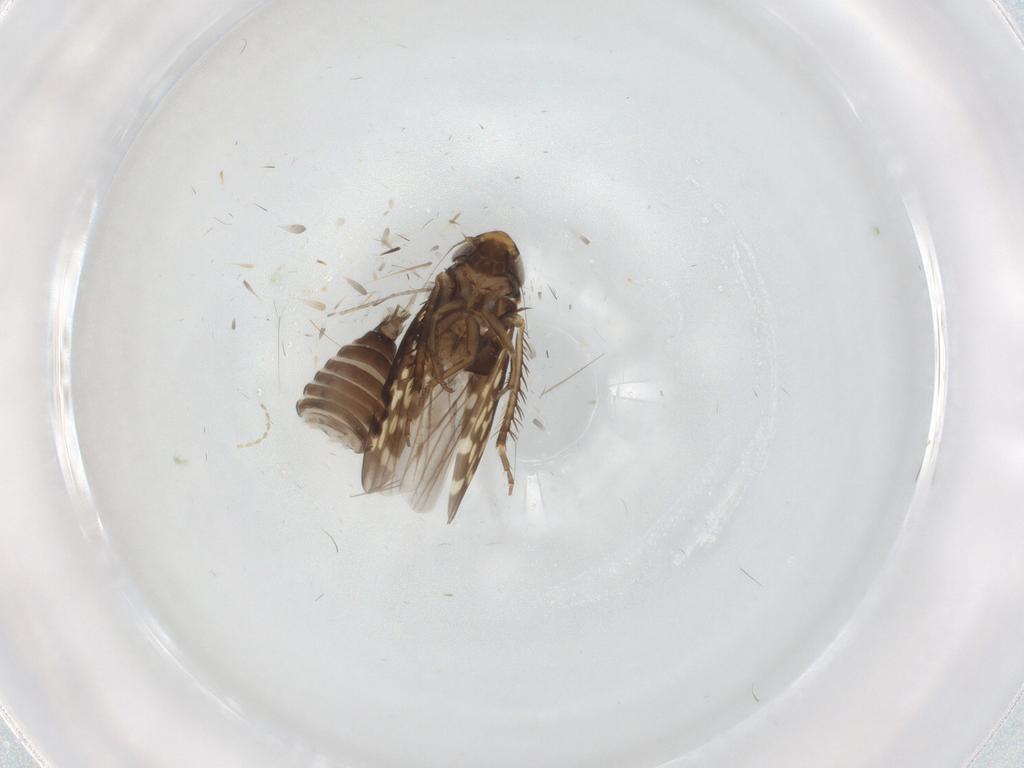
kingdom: Animalia
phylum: Arthropoda
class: Insecta
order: Hemiptera
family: Cicadellidae
